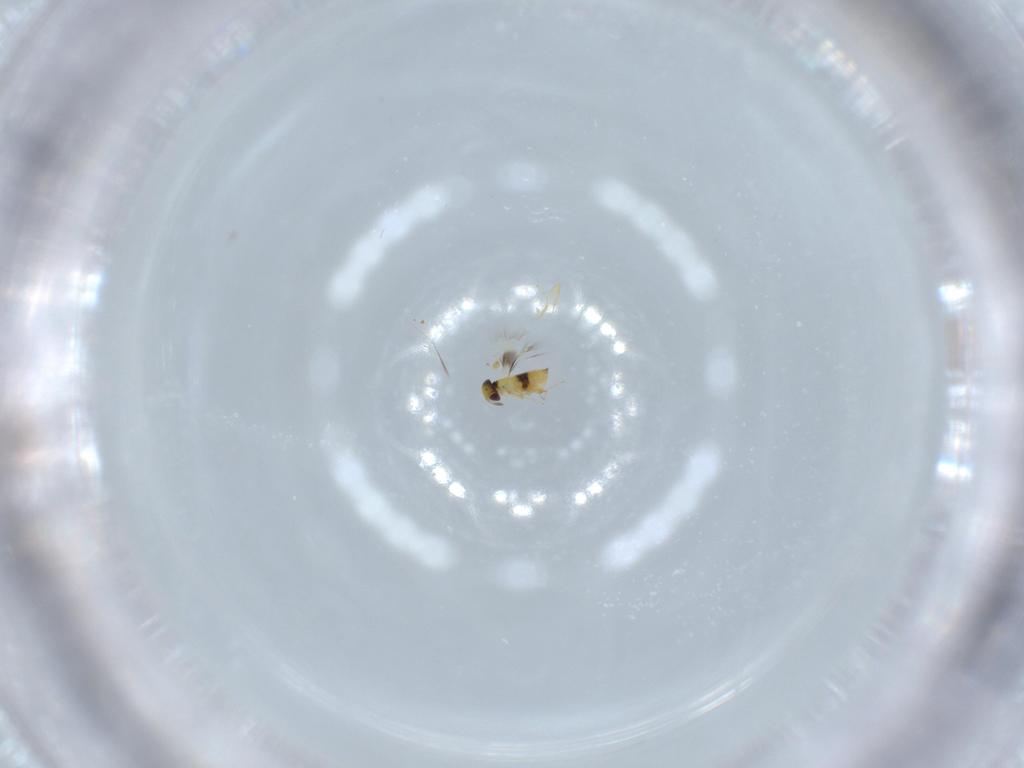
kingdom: Animalia
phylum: Arthropoda
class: Insecta
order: Hymenoptera
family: Signiphoridae
